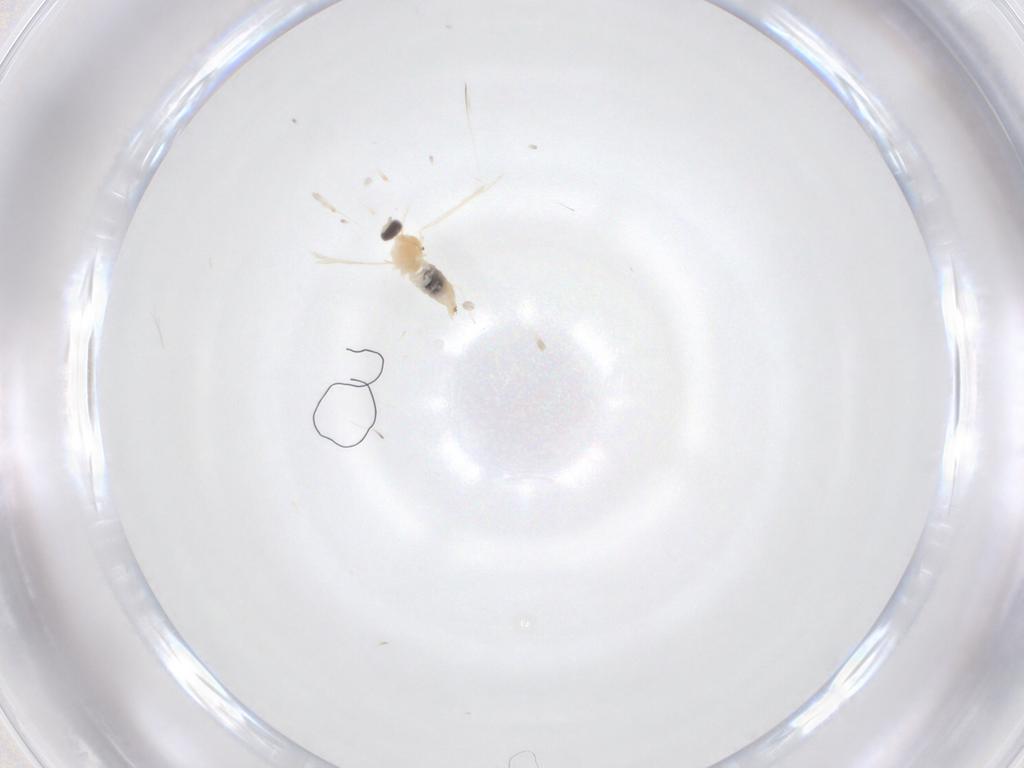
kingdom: Animalia
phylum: Arthropoda
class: Insecta
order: Diptera
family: Cecidomyiidae
